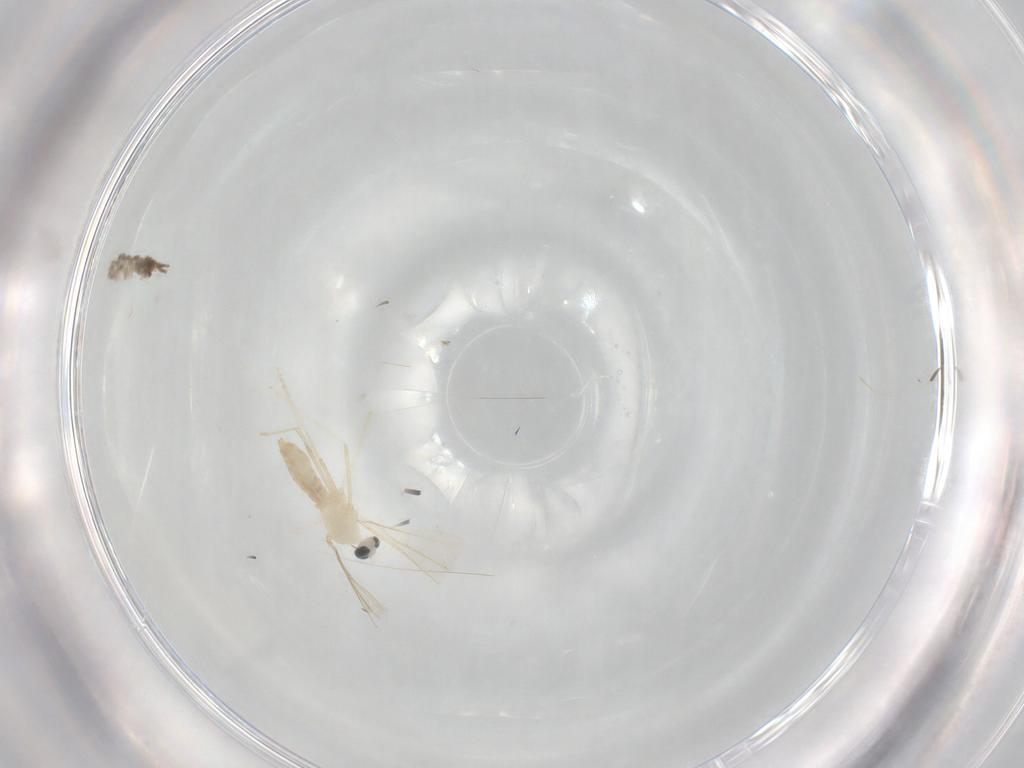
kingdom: Animalia
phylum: Arthropoda
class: Insecta
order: Diptera
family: Cecidomyiidae
